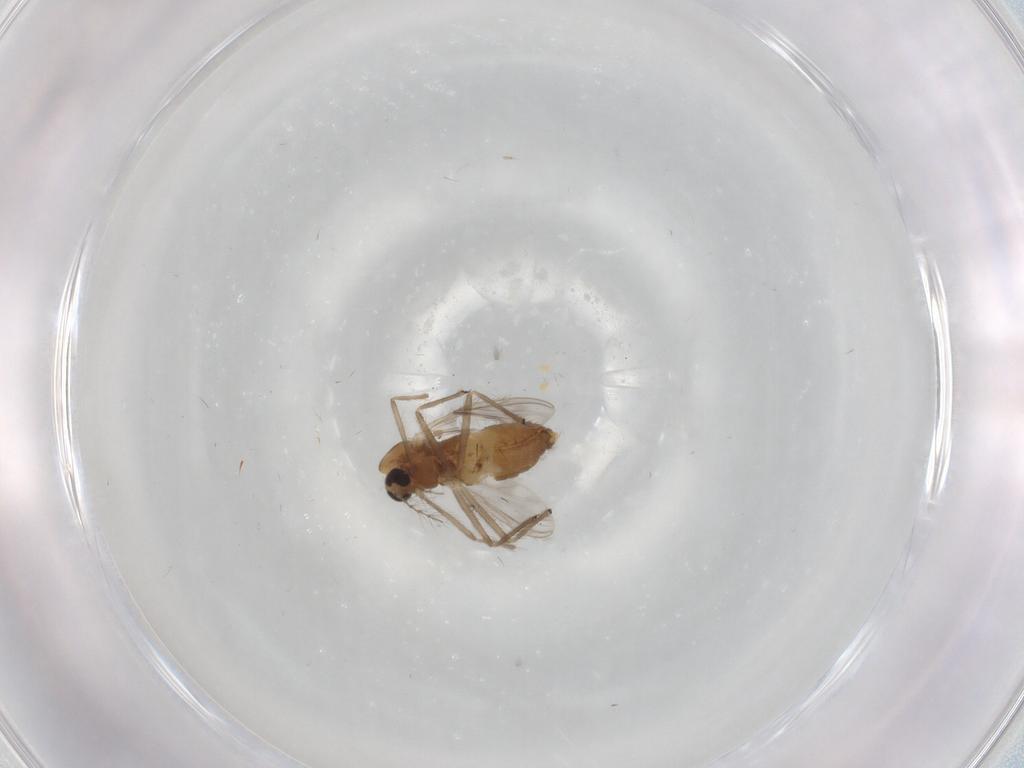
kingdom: Animalia
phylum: Arthropoda
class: Insecta
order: Diptera
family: Chironomidae
